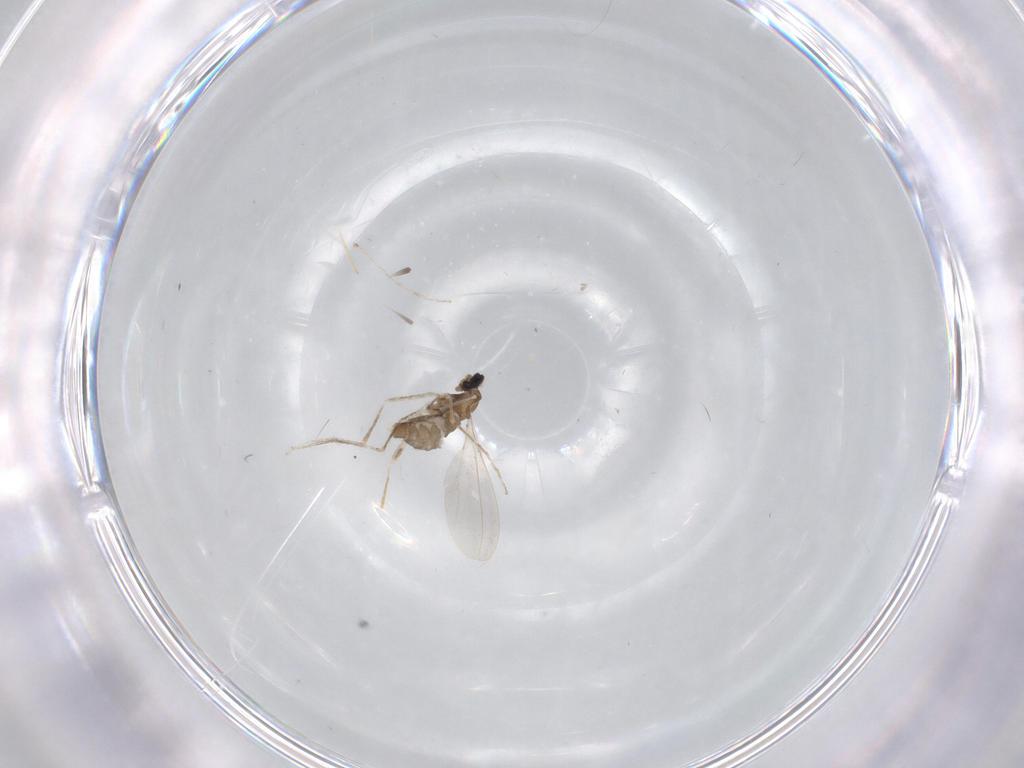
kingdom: Animalia
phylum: Arthropoda
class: Insecta
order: Diptera
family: Cecidomyiidae
